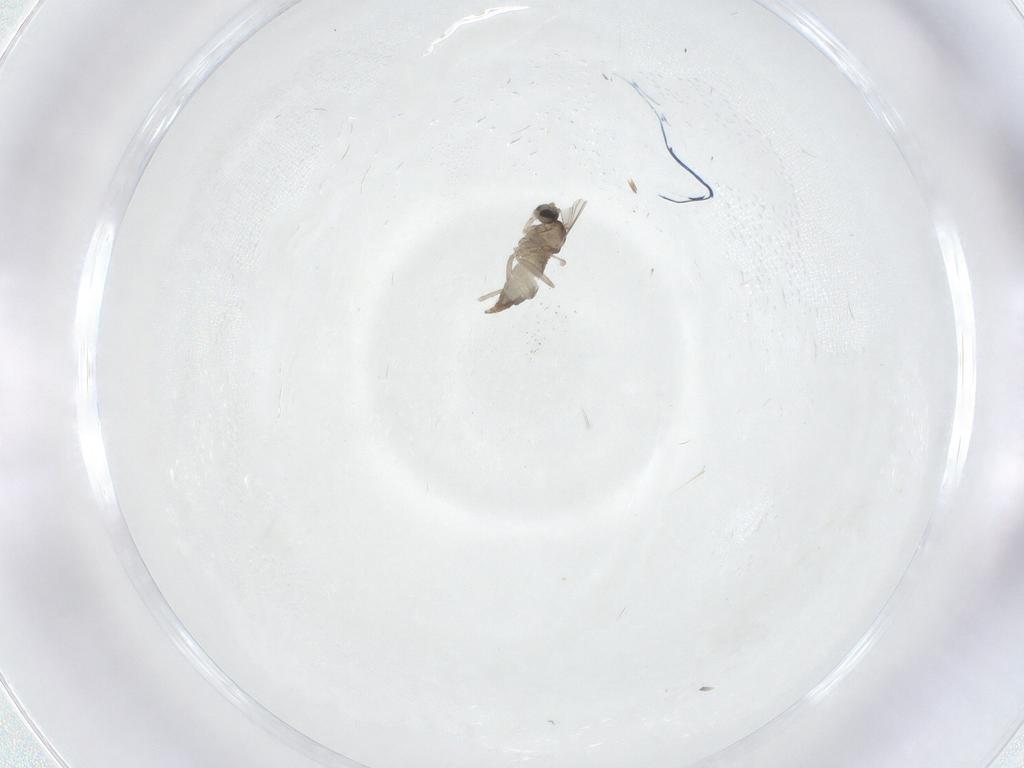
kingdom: Animalia
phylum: Arthropoda
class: Insecta
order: Diptera
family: Cecidomyiidae
